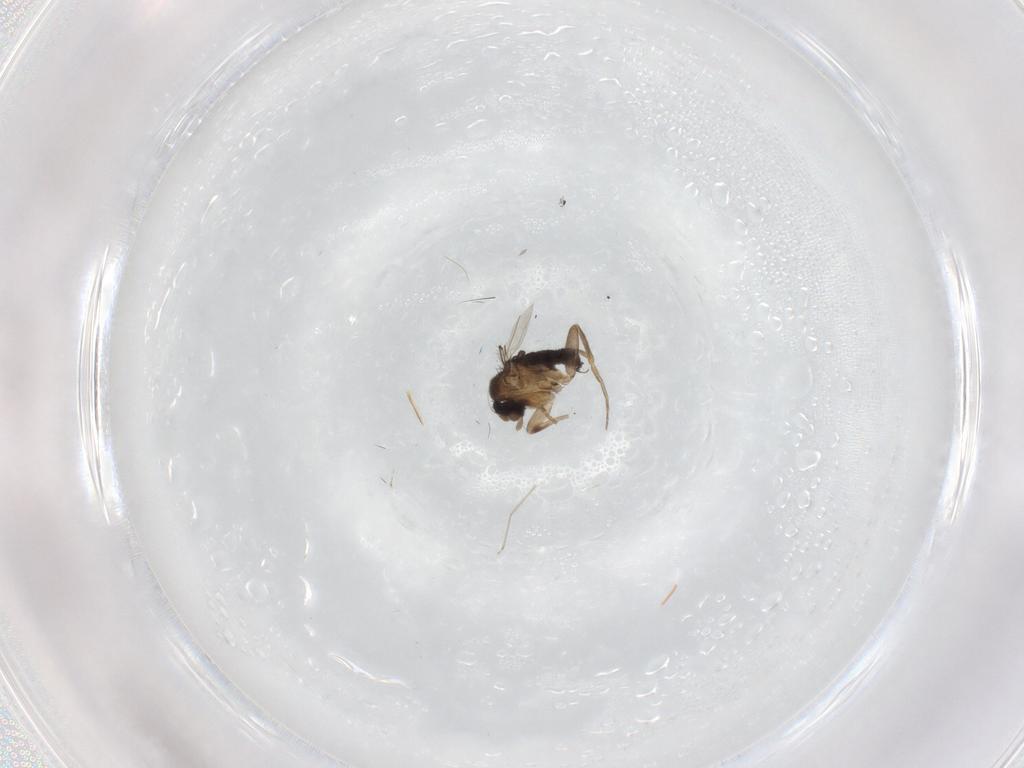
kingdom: Animalia
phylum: Arthropoda
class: Insecta
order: Diptera
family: Phoridae
